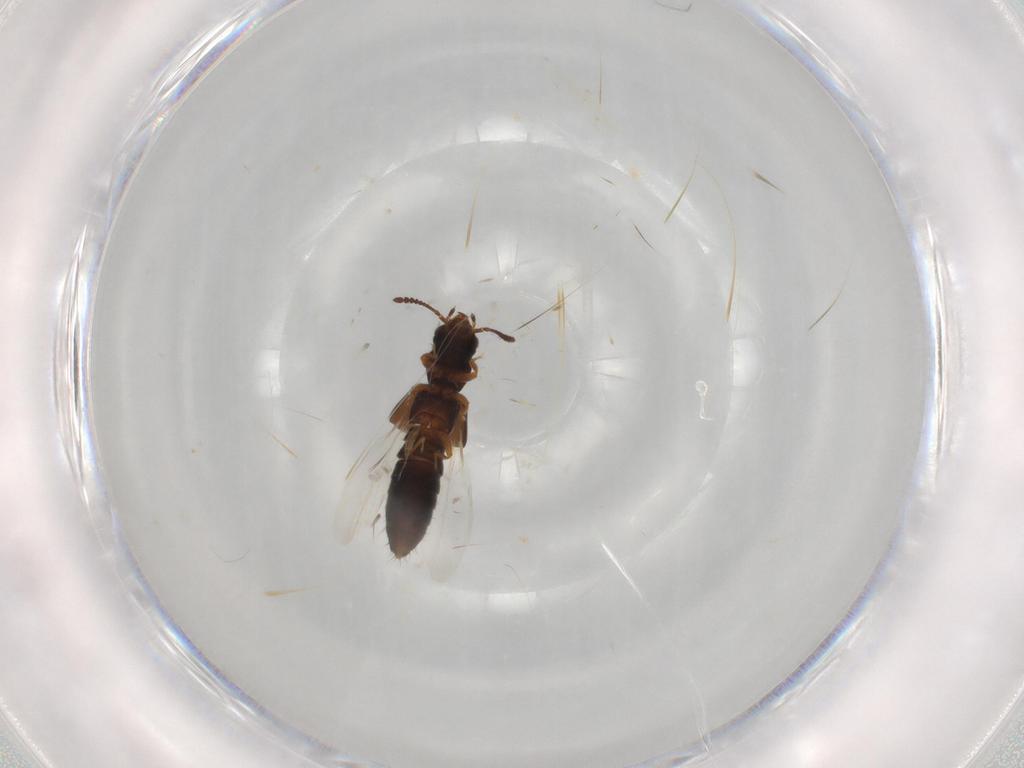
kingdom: Animalia
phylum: Arthropoda
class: Insecta
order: Coleoptera
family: Staphylinidae
